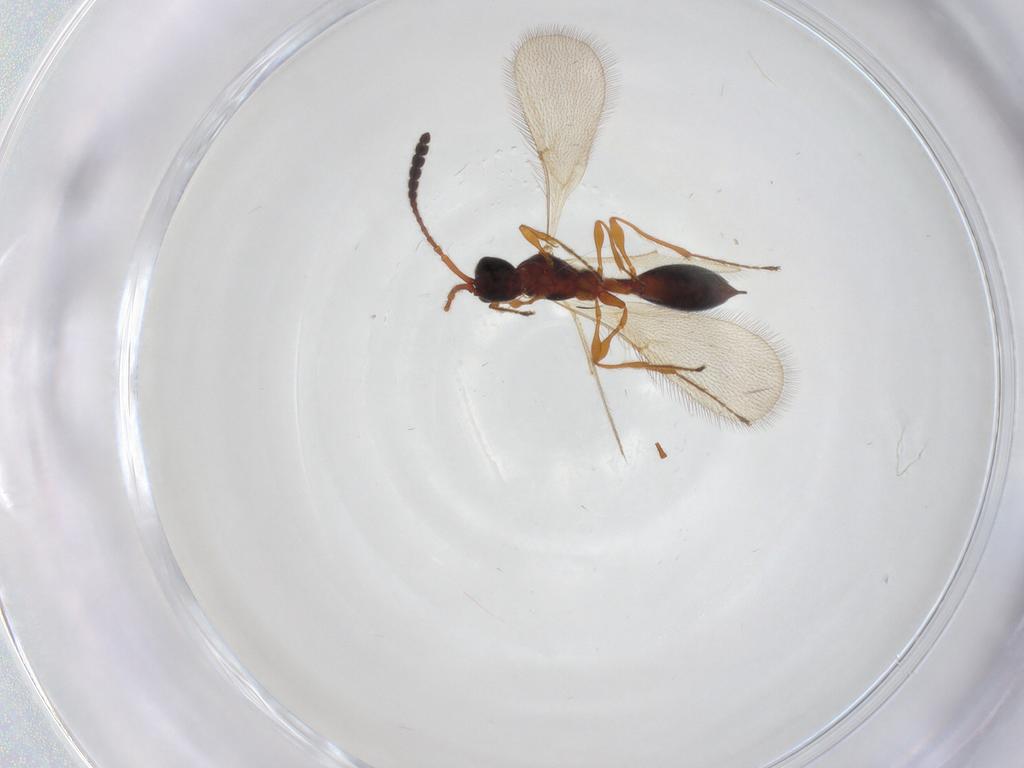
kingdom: Animalia
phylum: Arthropoda
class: Insecta
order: Hymenoptera
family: Diapriidae
